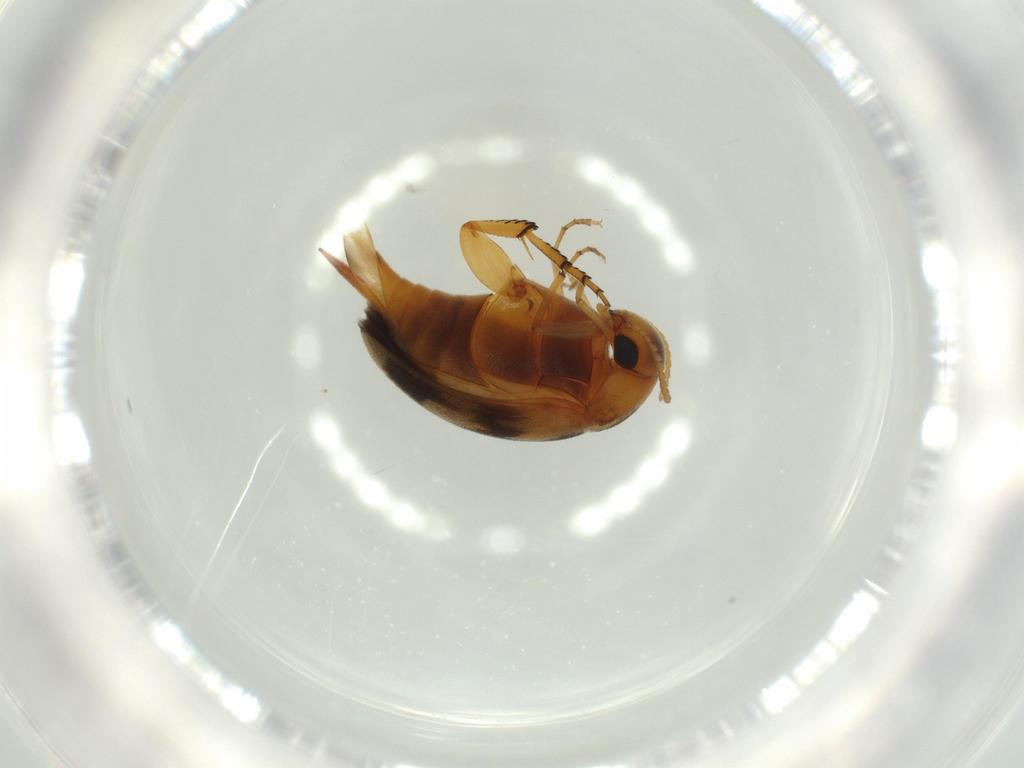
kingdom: Animalia
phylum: Arthropoda
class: Insecta
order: Coleoptera
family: Mordellidae
